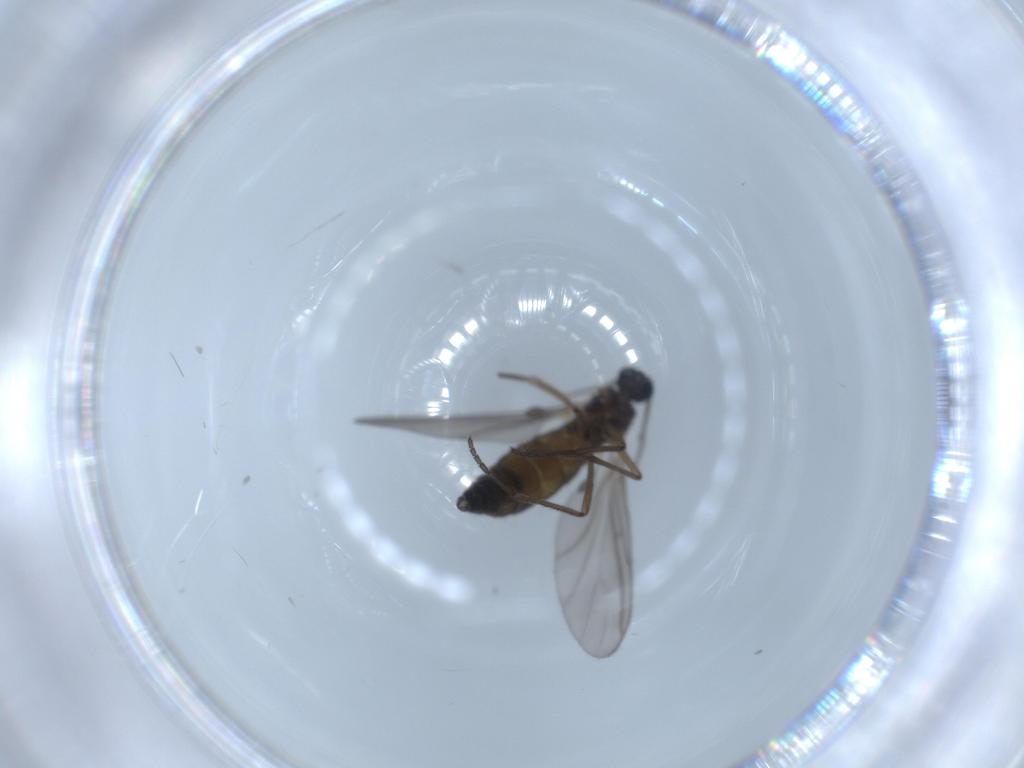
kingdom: Animalia
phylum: Arthropoda
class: Insecta
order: Diptera
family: Sciaridae
